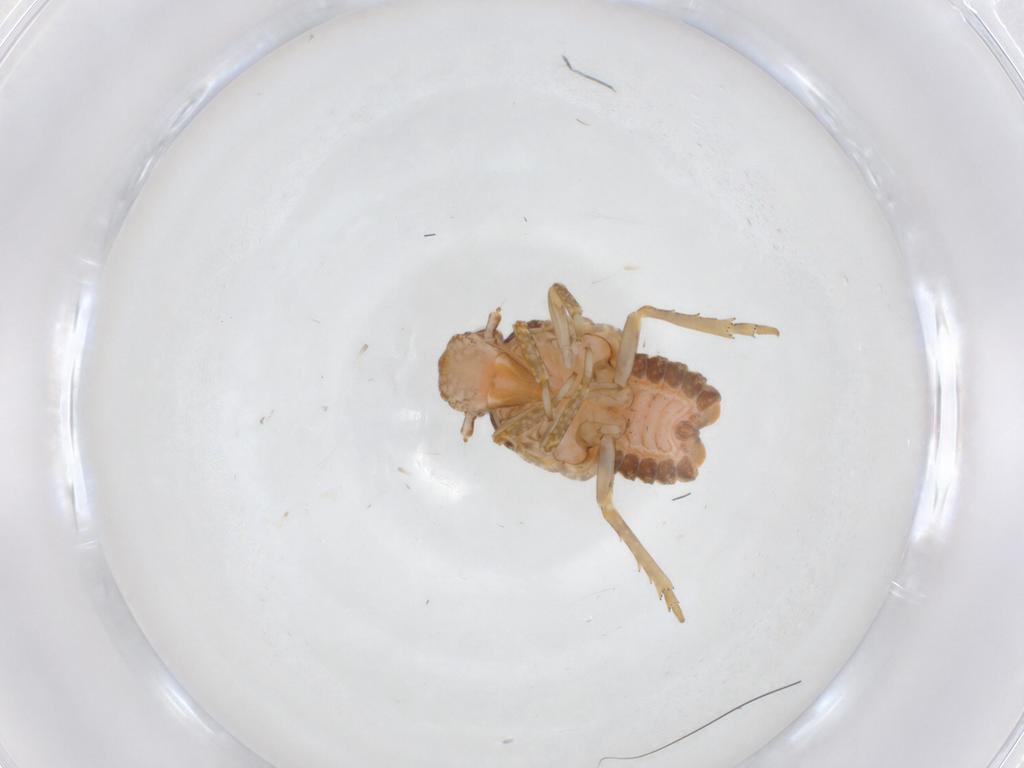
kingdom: Animalia
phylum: Arthropoda
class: Insecta
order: Hemiptera
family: Flatidae
